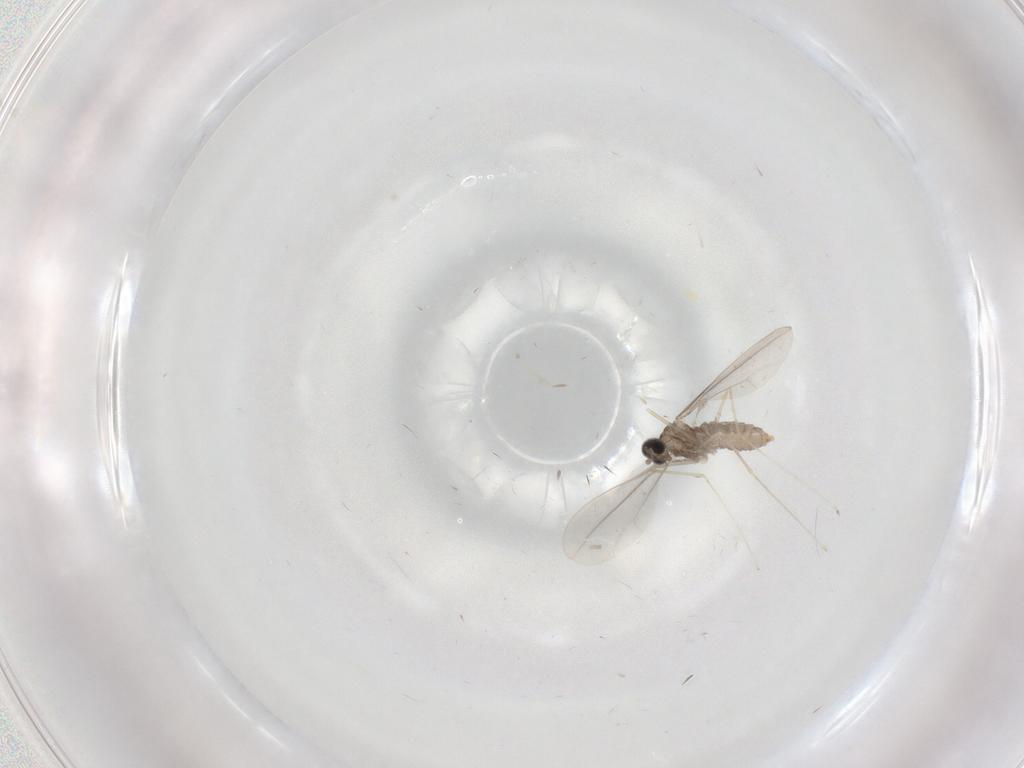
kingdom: Animalia
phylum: Arthropoda
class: Insecta
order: Diptera
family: Cecidomyiidae
